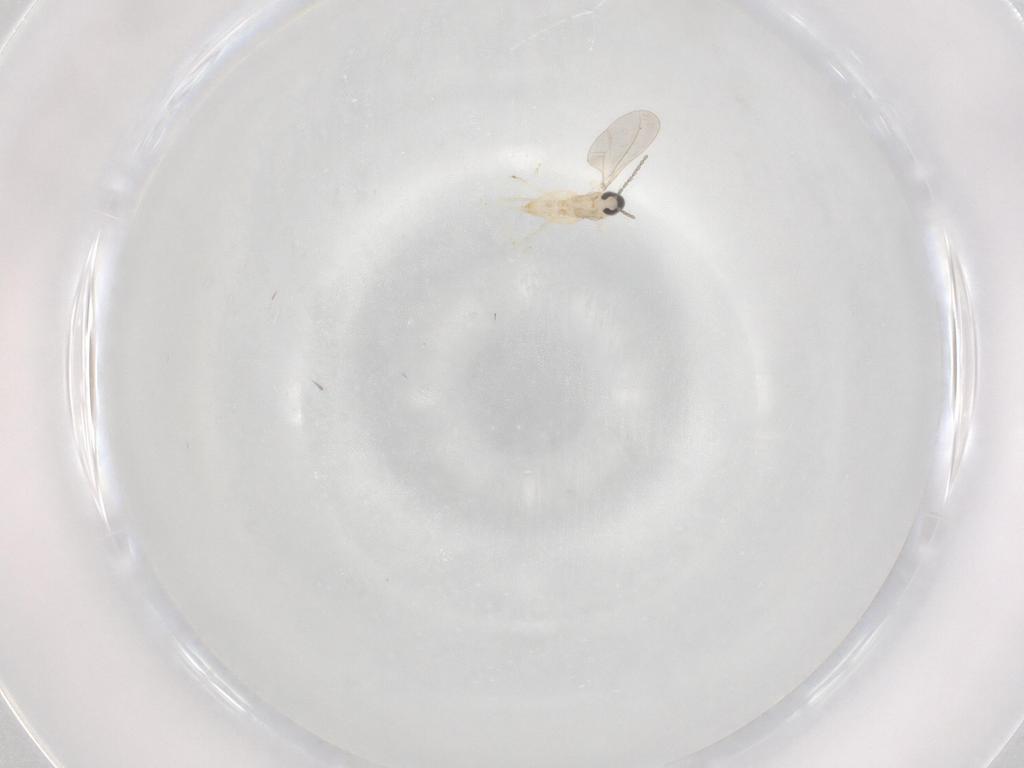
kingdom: Animalia
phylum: Arthropoda
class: Insecta
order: Diptera
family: Cecidomyiidae
